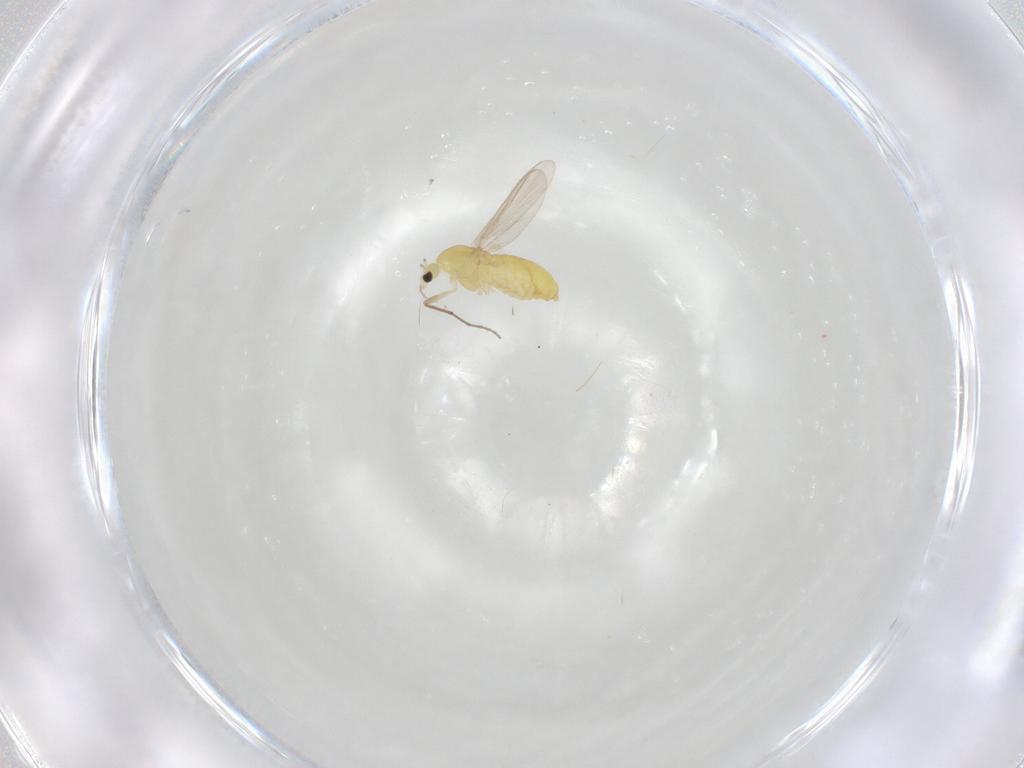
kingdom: Animalia
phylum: Arthropoda
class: Insecta
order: Diptera
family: Chironomidae
